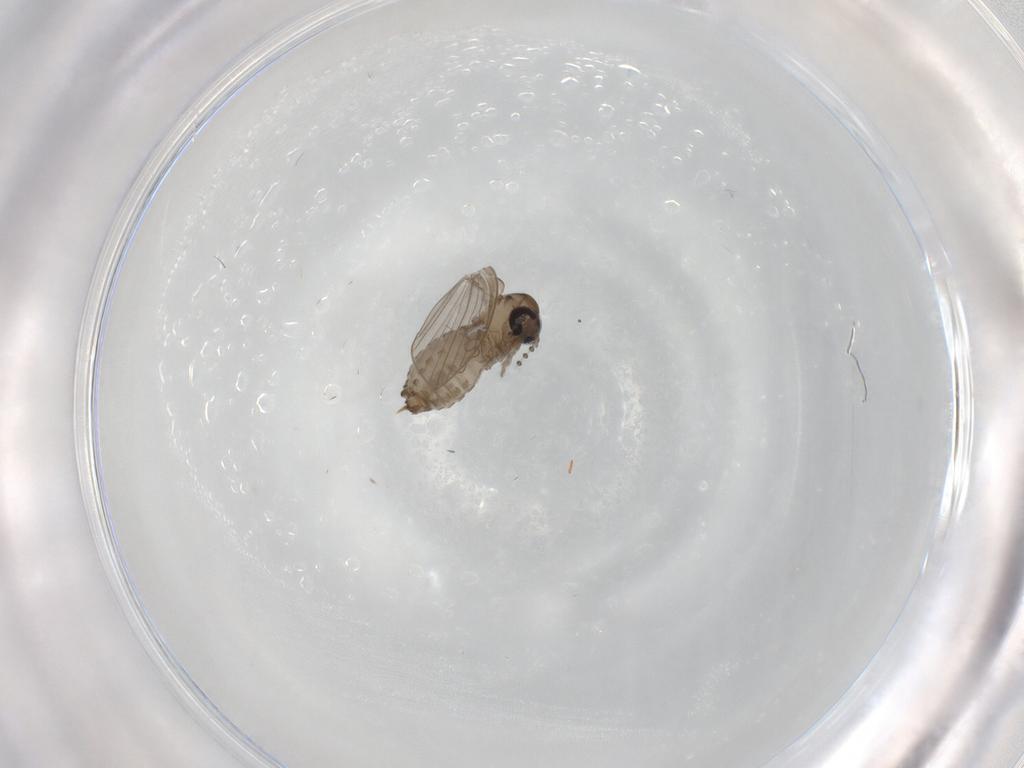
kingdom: Animalia
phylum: Arthropoda
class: Insecta
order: Diptera
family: Psychodidae
